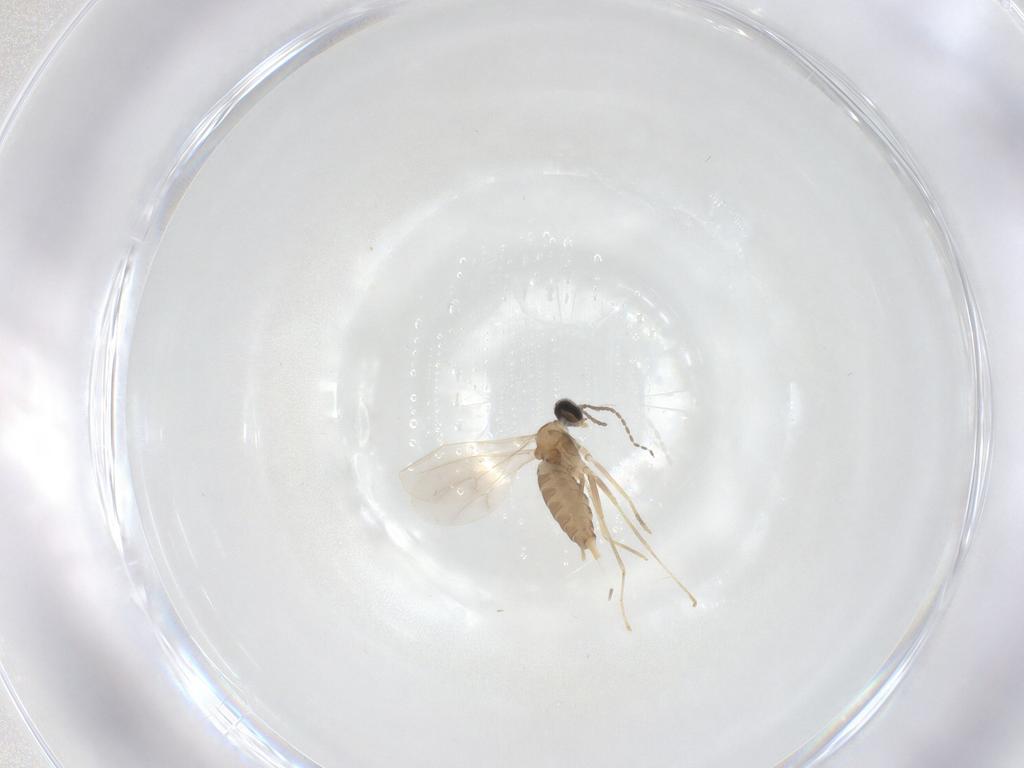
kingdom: Animalia
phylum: Arthropoda
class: Insecta
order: Diptera
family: Cecidomyiidae
